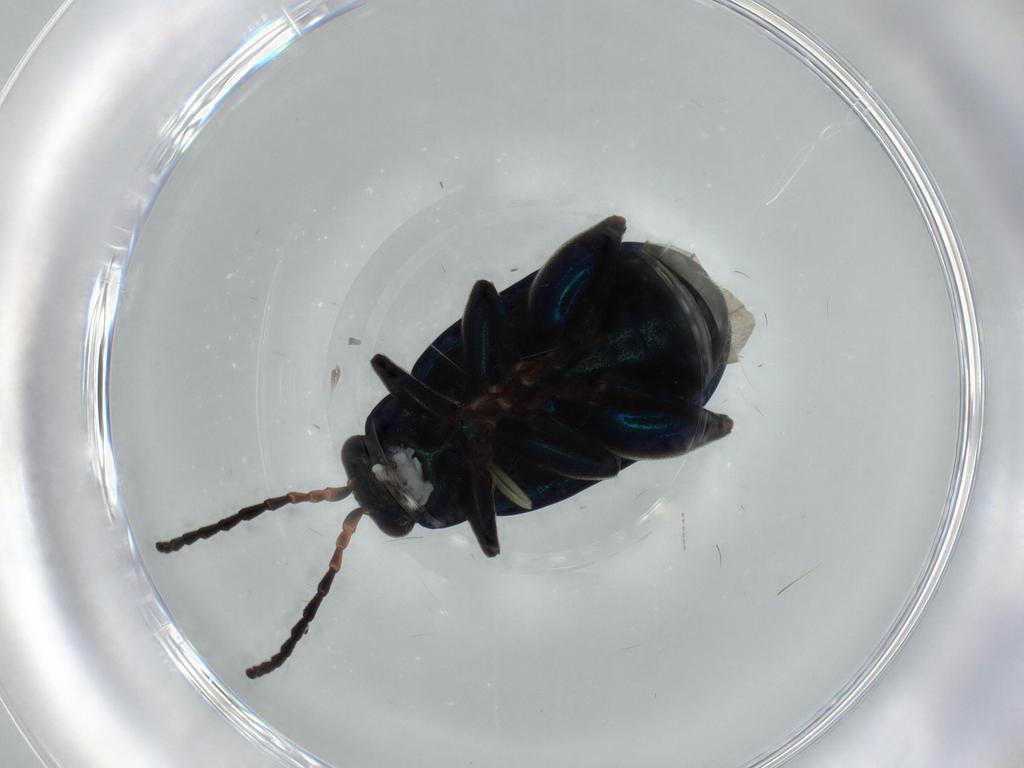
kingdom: Animalia
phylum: Arthropoda
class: Insecta
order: Coleoptera
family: Chrysomelidae
